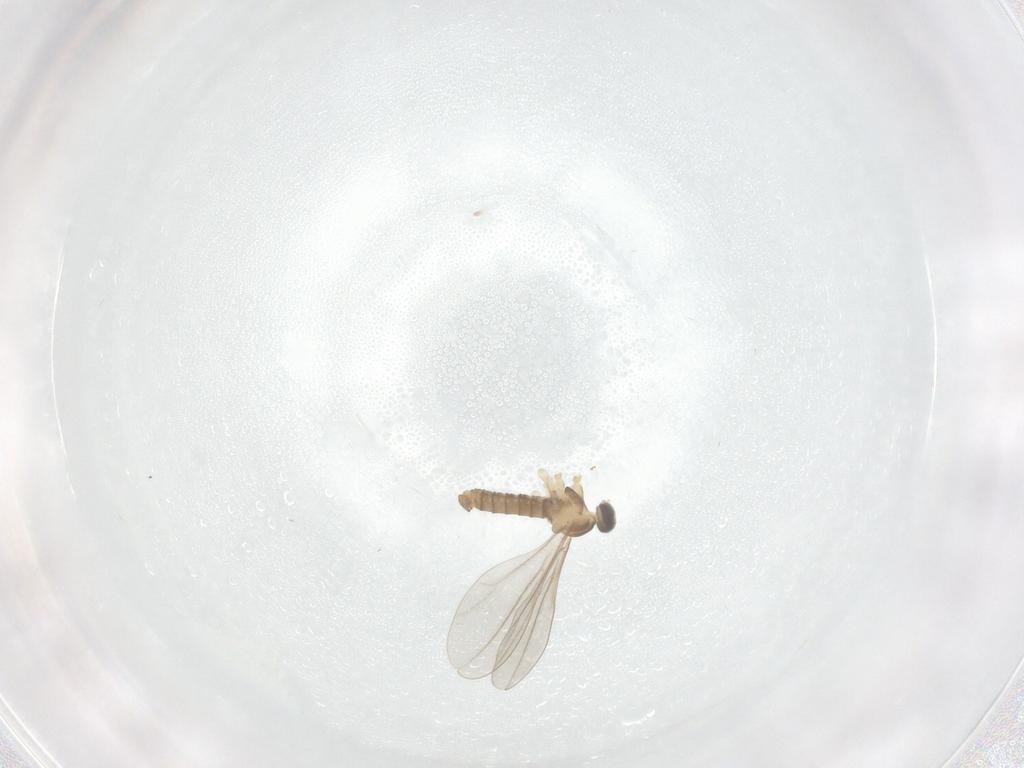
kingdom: Animalia
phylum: Arthropoda
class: Insecta
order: Diptera
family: Cecidomyiidae
